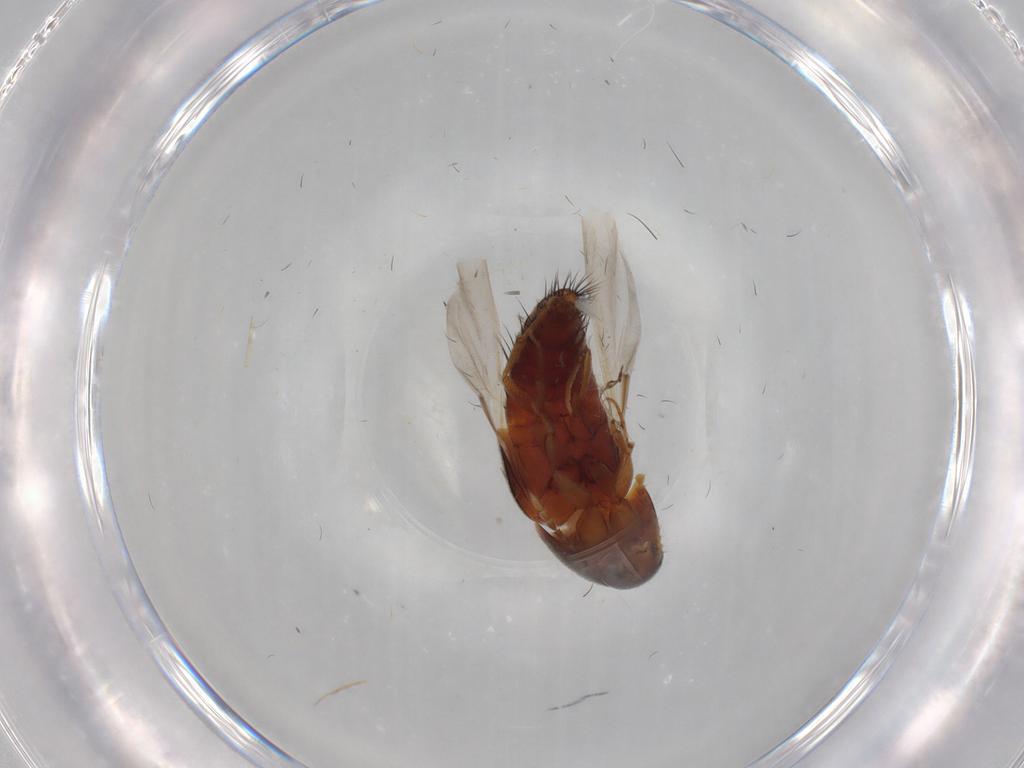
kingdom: Animalia
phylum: Arthropoda
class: Insecta
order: Coleoptera
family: Staphylinidae
